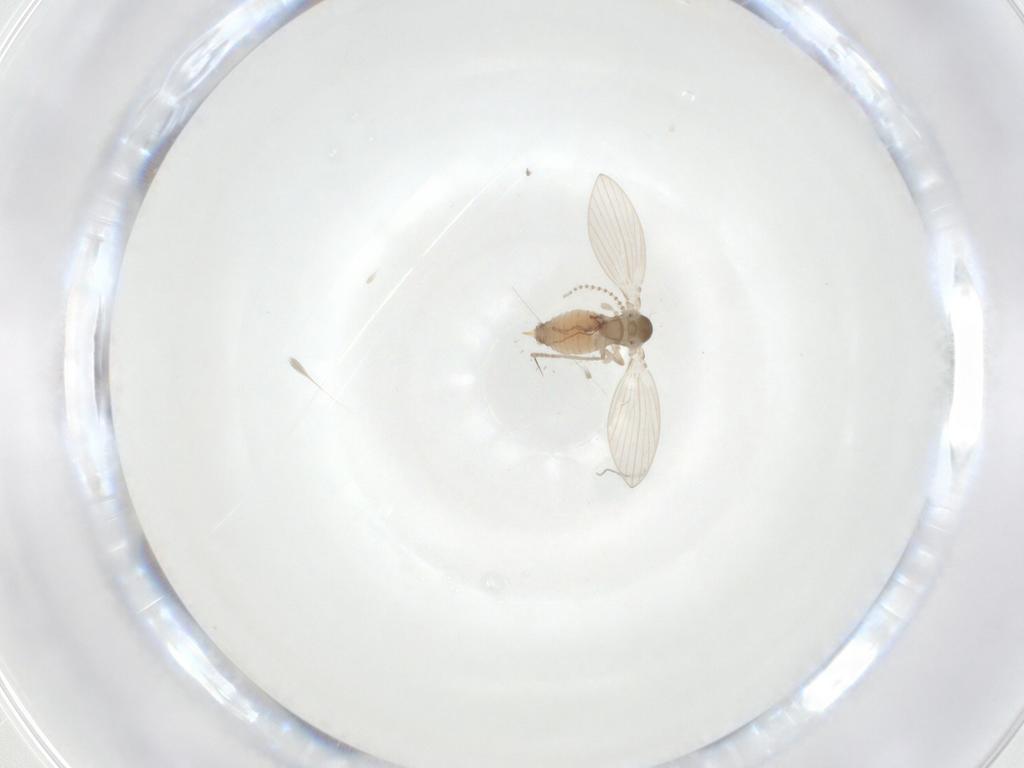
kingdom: Animalia
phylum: Arthropoda
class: Insecta
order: Diptera
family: Psychodidae
